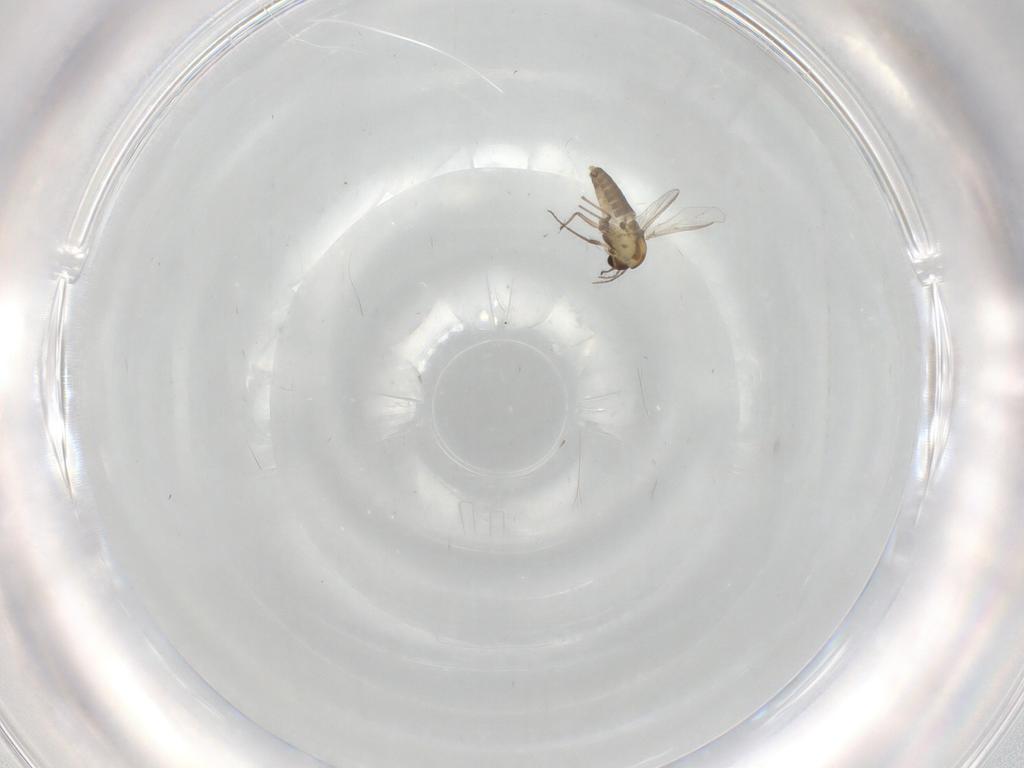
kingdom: Animalia
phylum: Arthropoda
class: Insecta
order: Diptera
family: Chironomidae
